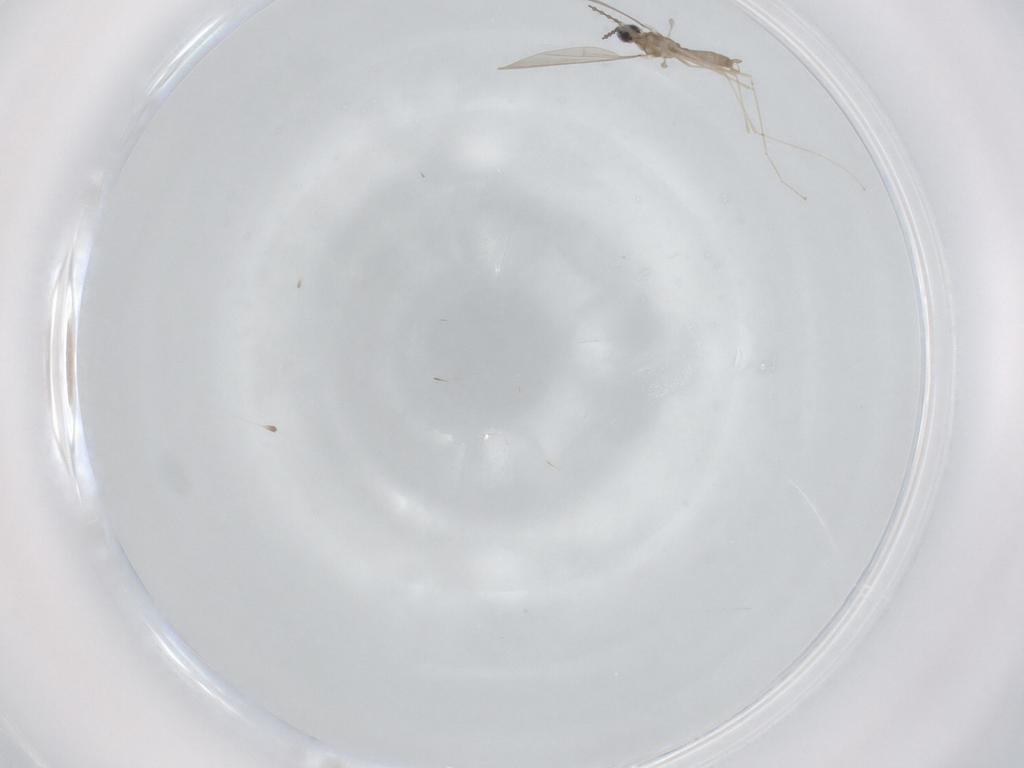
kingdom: Animalia
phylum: Arthropoda
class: Insecta
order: Diptera
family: Cecidomyiidae
